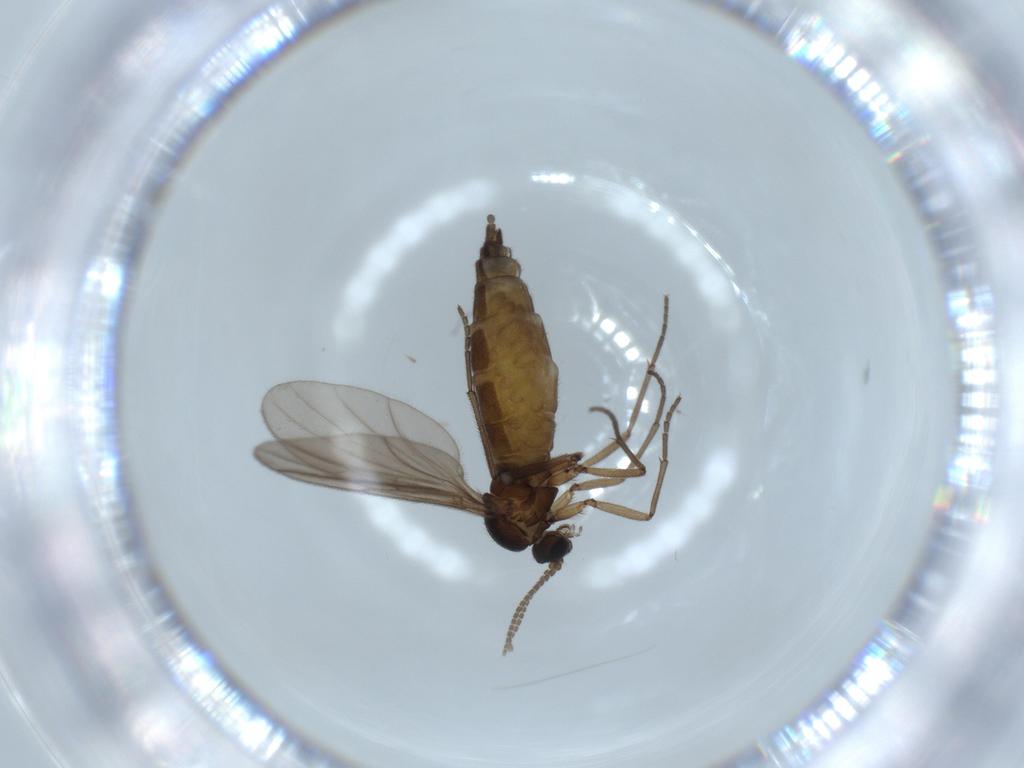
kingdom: Animalia
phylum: Arthropoda
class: Insecta
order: Diptera
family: Sciaridae
